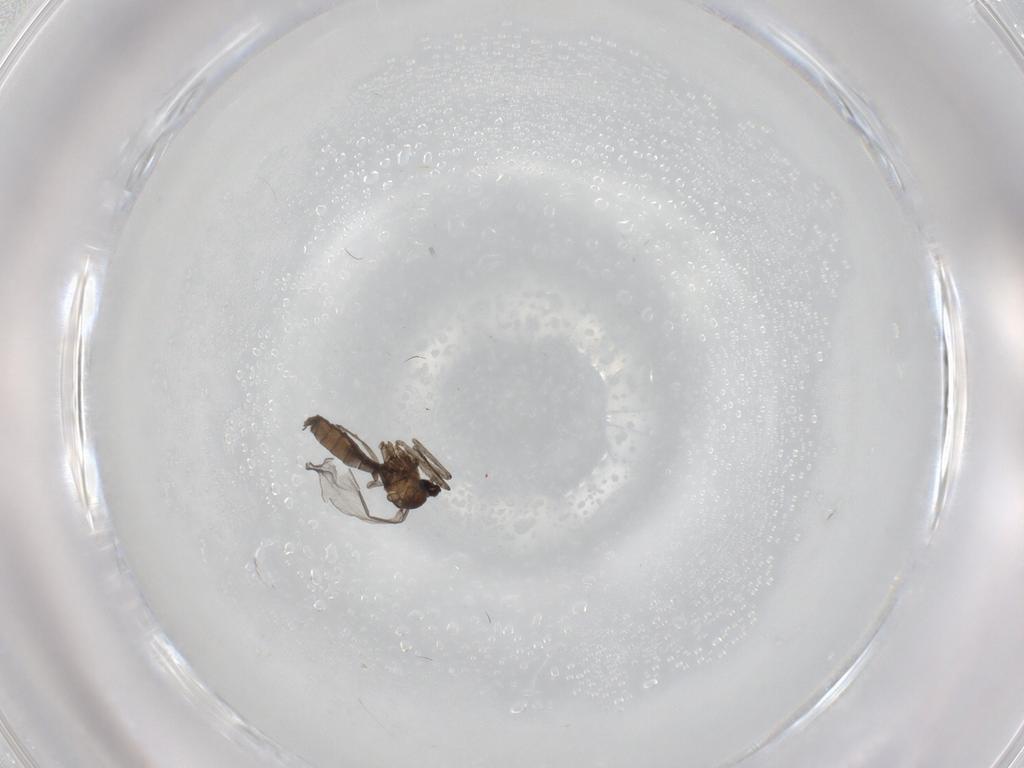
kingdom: Animalia
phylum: Arthropoda
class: Insecta
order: Diptera
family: Cecidomyiidae
